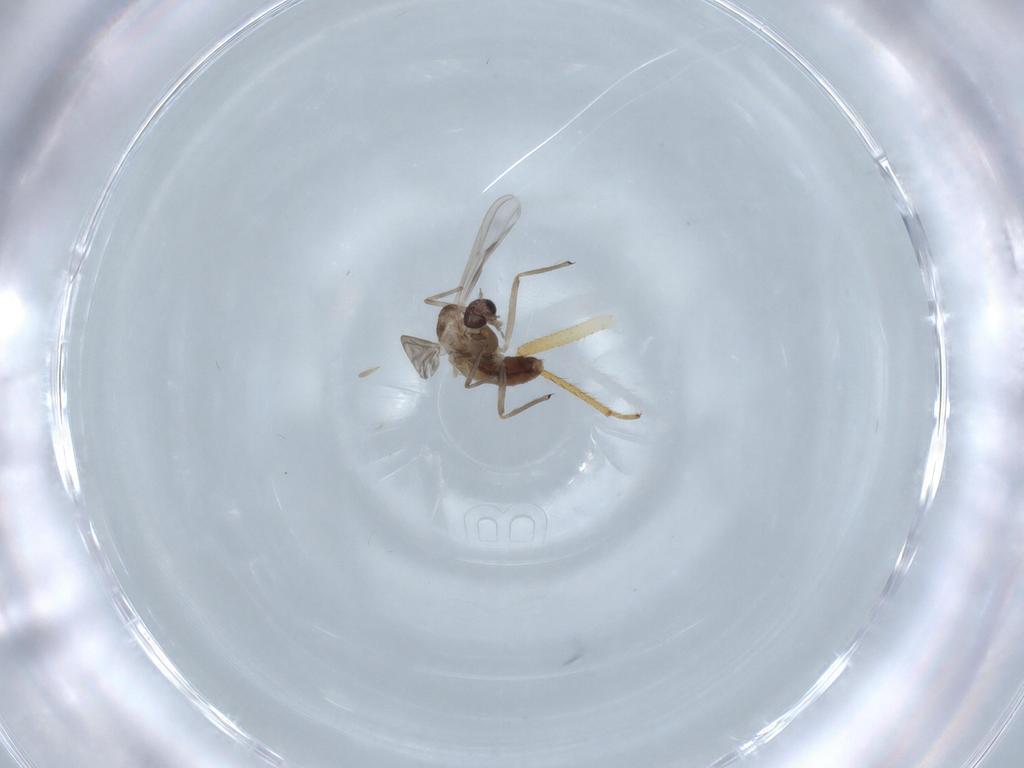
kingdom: Animalia
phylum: Arthropoda
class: Insecta
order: Diptera
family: Chironomidae
